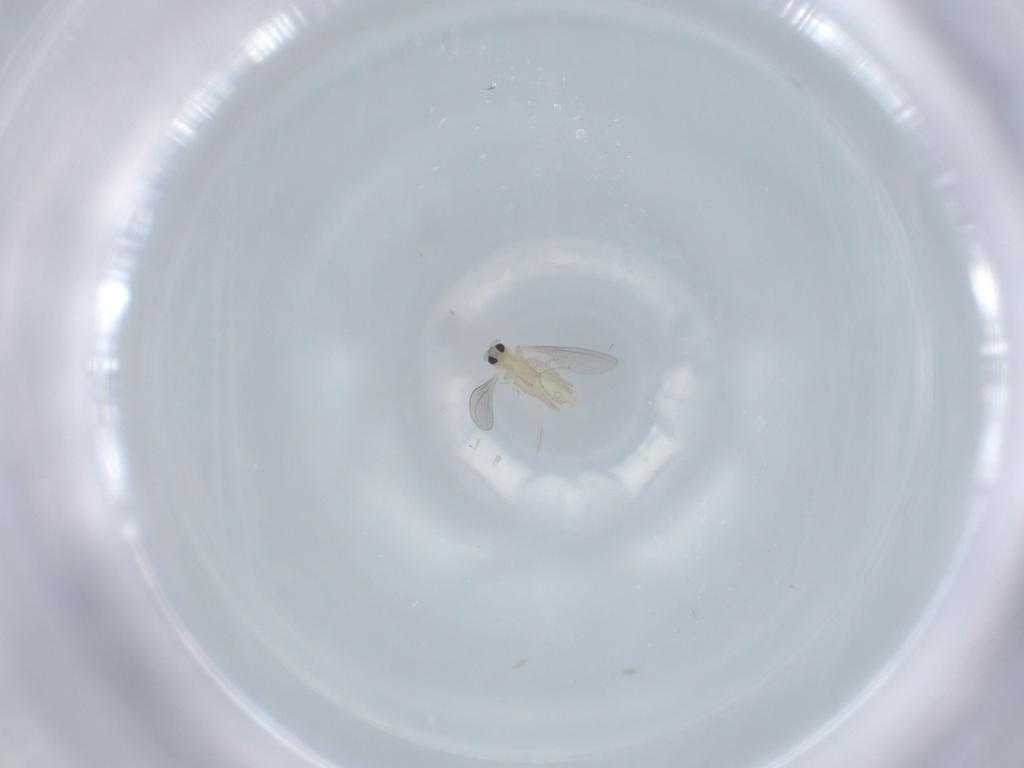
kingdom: Animalia
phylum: Arthropoda
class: Insecta
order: Diptera
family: Cecidomyiidae
